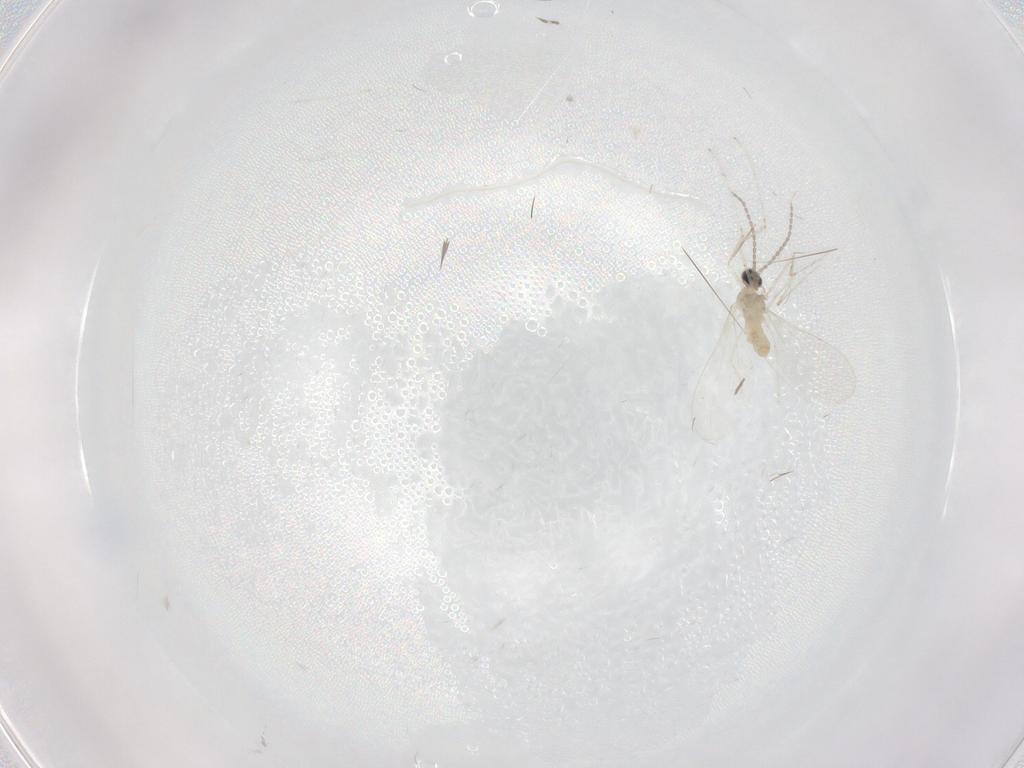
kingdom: Animalia
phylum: Arthropoda
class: Insecta
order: Diptera
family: Cecidomyiidae
